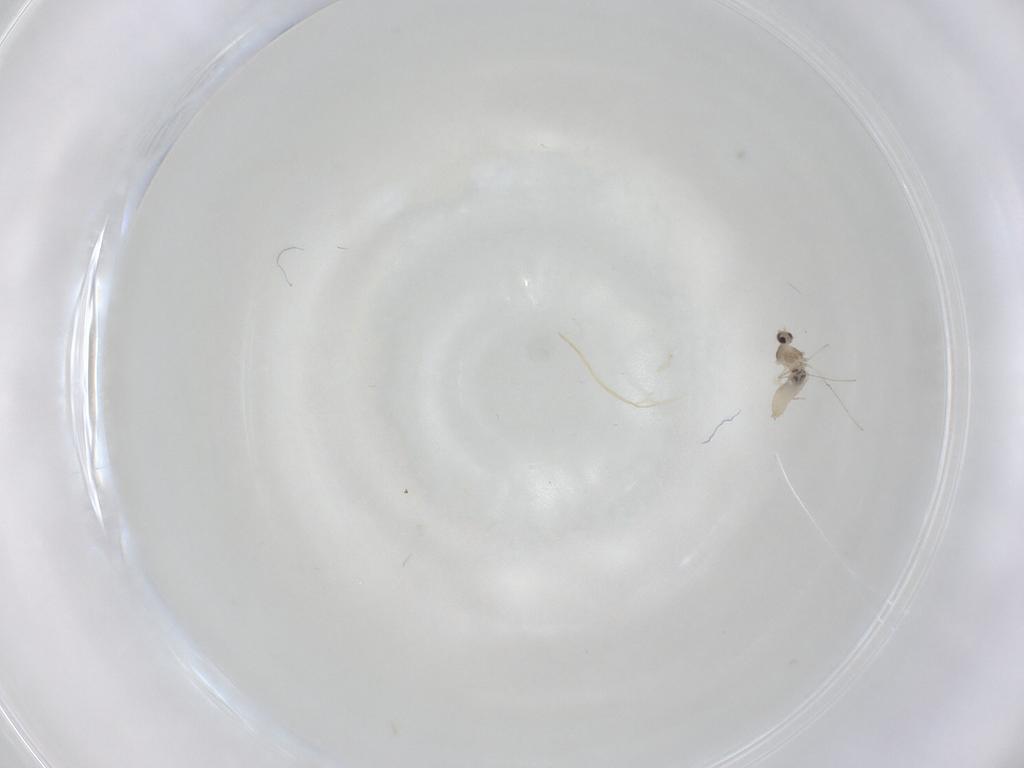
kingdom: Animalia
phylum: Arthropoda
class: Insecta
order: Diptera
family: Cecidomyiidae
